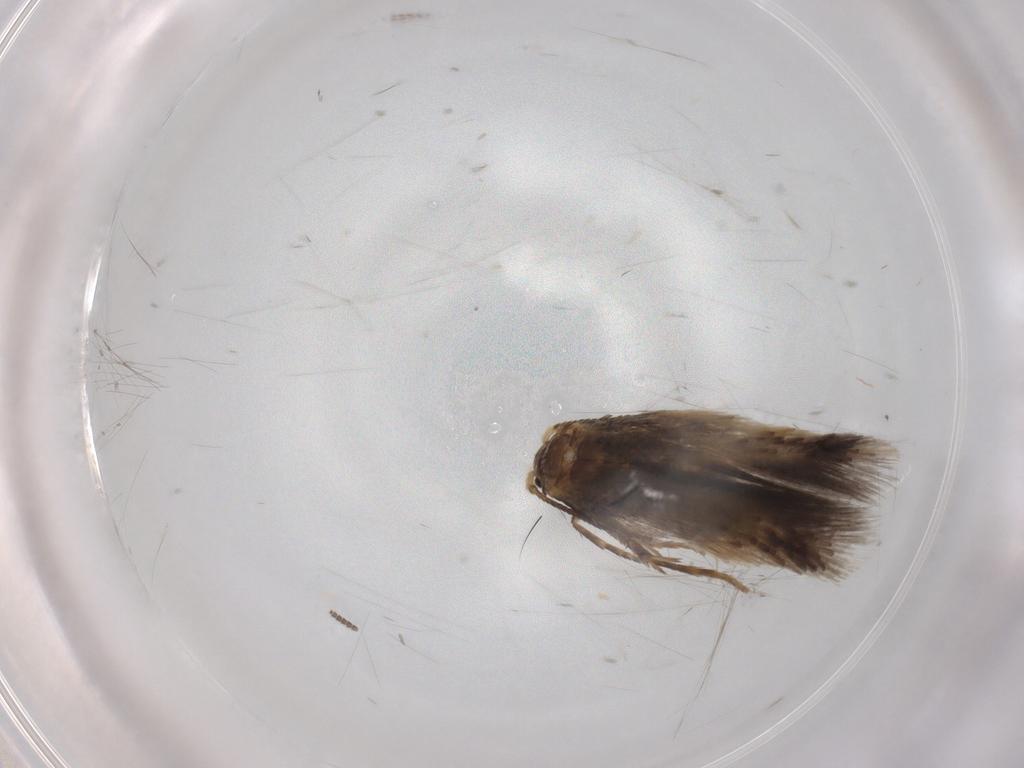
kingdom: Animalia
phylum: Arthropoda
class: Insecta
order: Lepidoptera
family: Nepticulidae
